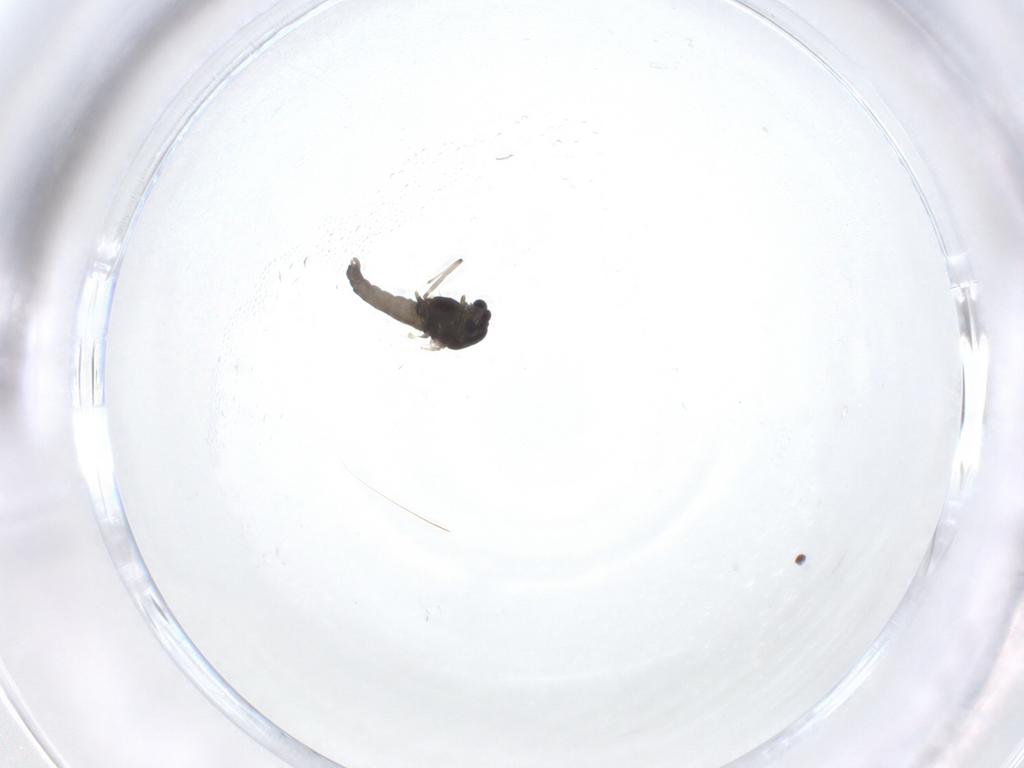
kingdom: Animalia
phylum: Arthropoda
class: Insecta
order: Diptera
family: Chironomidae
